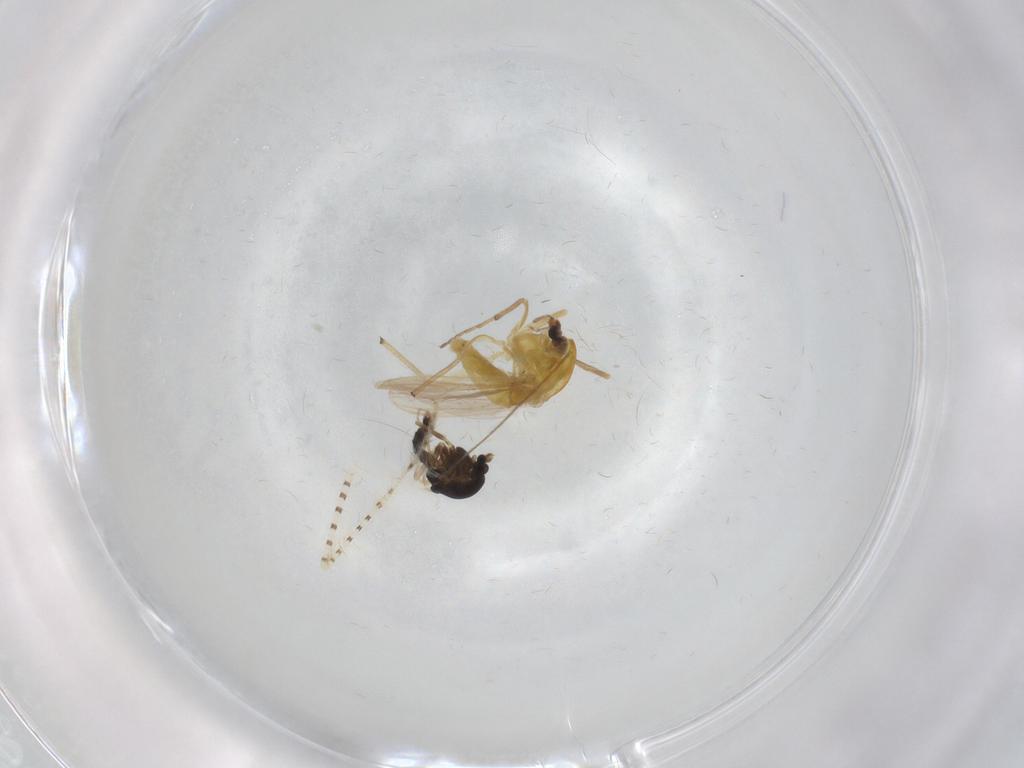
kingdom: Animalia
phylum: Arthropoda
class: Insecta
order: Diptera
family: Chironomidae
